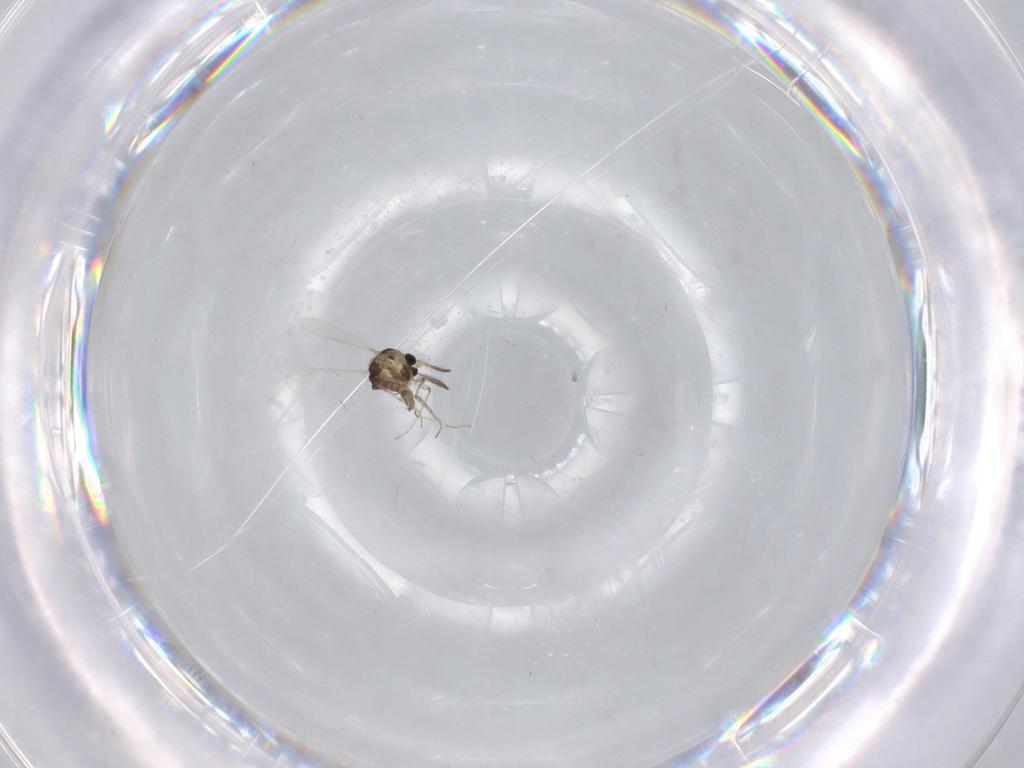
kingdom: Animalia
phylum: Arthropoda
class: Insecta
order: Diptera
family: Chironomidae
